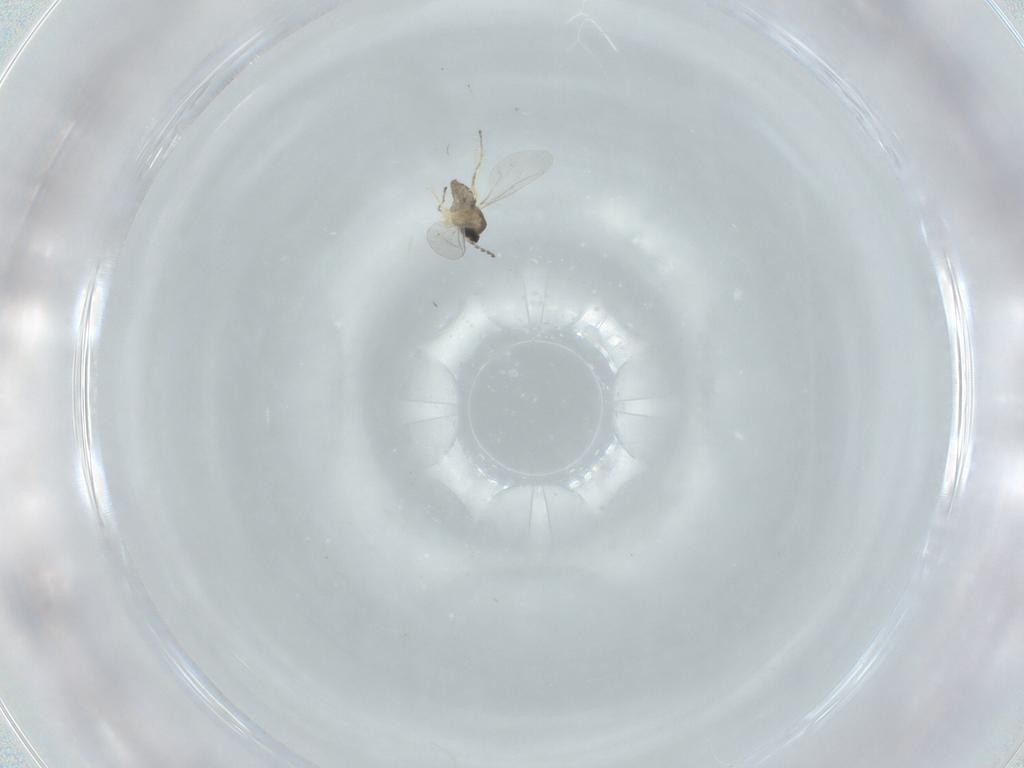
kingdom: Animalia
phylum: Arthropoda
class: Insecta
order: Diptera
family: Cecidomyiidae
